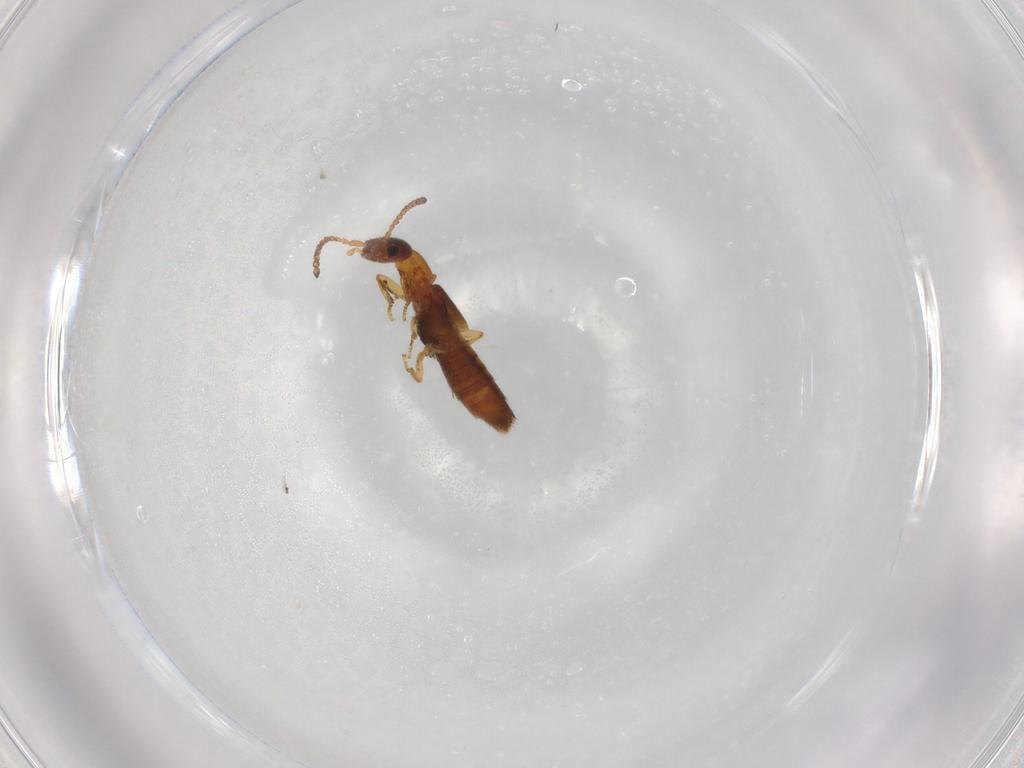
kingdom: Animalia
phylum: Arthropoda
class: Insecta
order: Coleoptera
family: Staphylinidae
